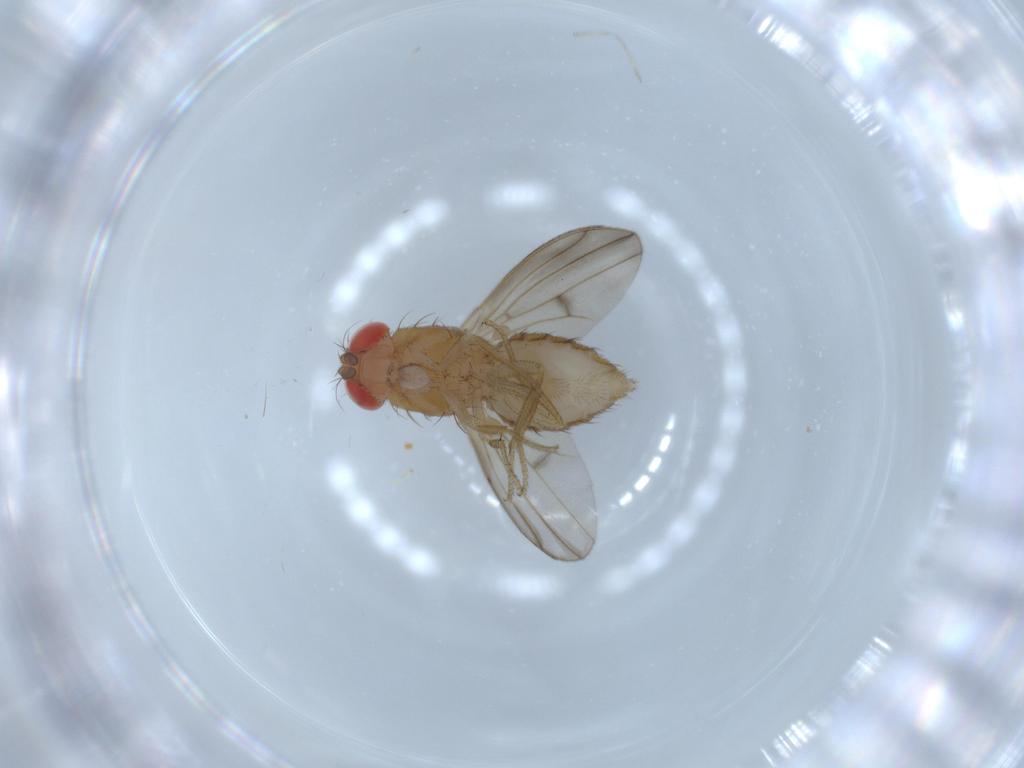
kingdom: Animalia
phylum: Arthropoda
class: Insecta
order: Diptera
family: Drosophilidae
